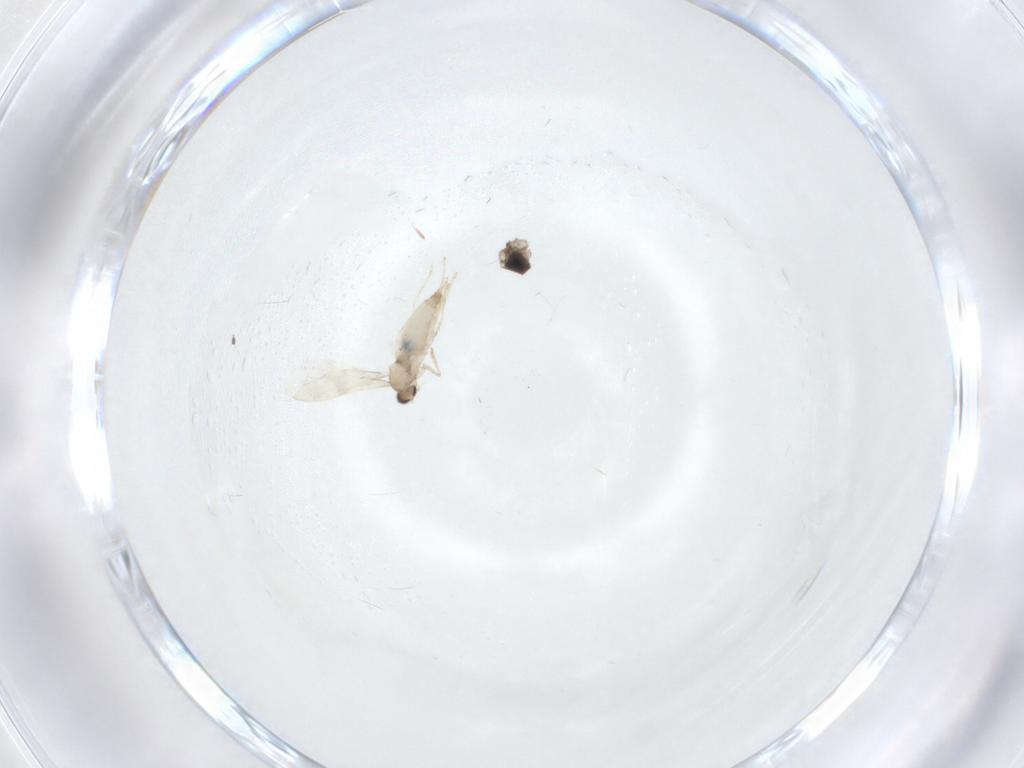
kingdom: Animalia
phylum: Arthropoda
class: Insecta
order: Diptera
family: Cecidomyiidae
